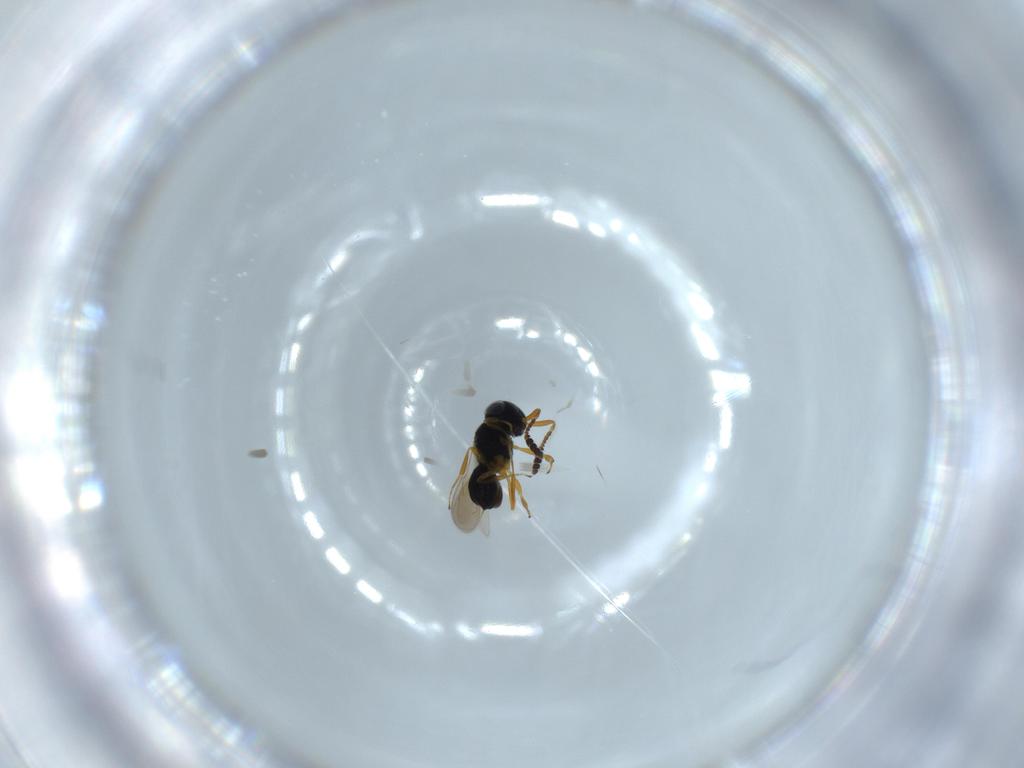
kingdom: Animalia
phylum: Arthropoda
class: Insecta
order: Hymenoptera
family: Scelionidae
